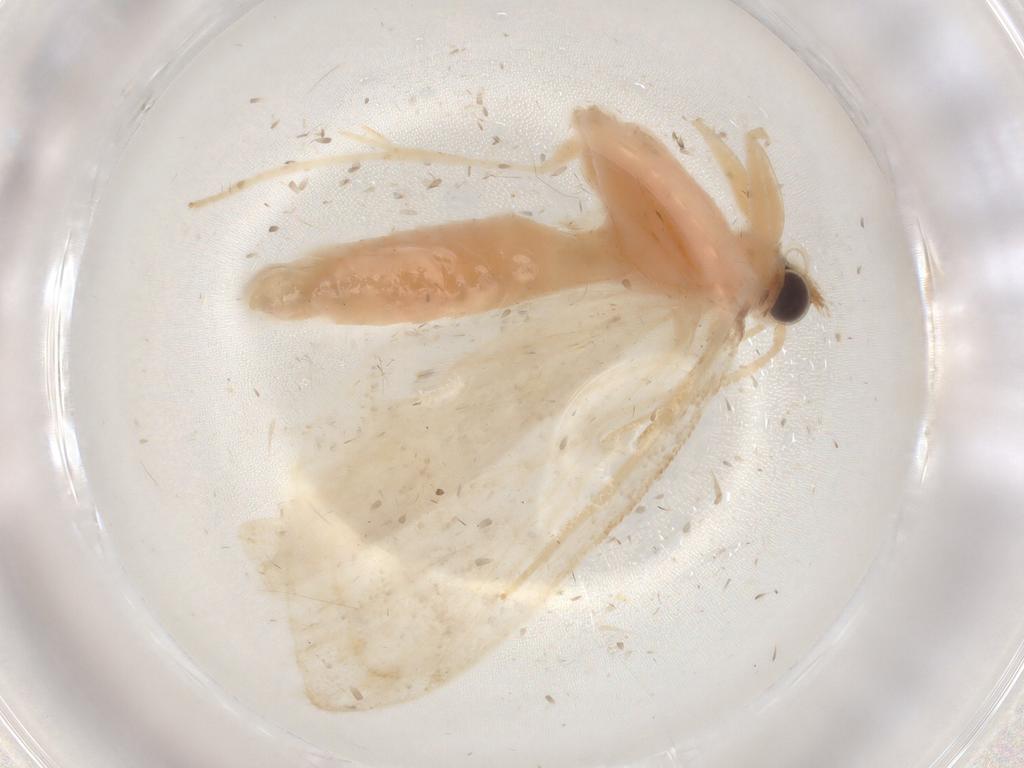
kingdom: Animalia
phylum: Arthropoda
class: Insecta
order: Lepidoptera
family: Crambidae
